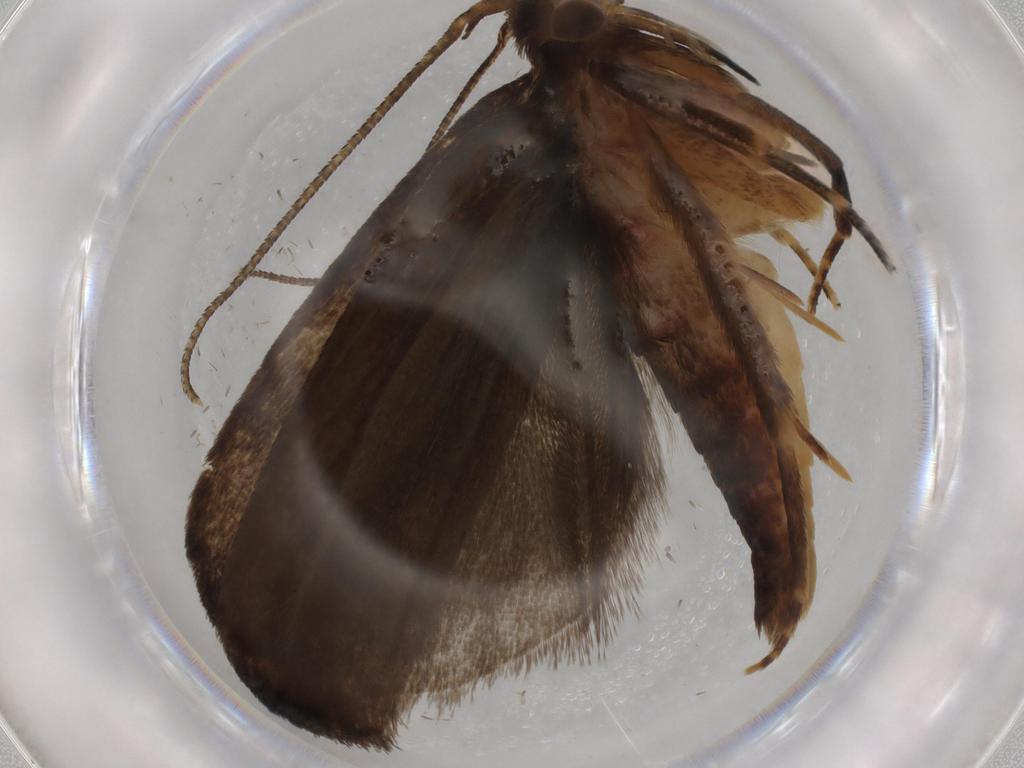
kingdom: Animalia
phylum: Arthropoda
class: Insecta
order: Lepidoptera
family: Autostichidae
